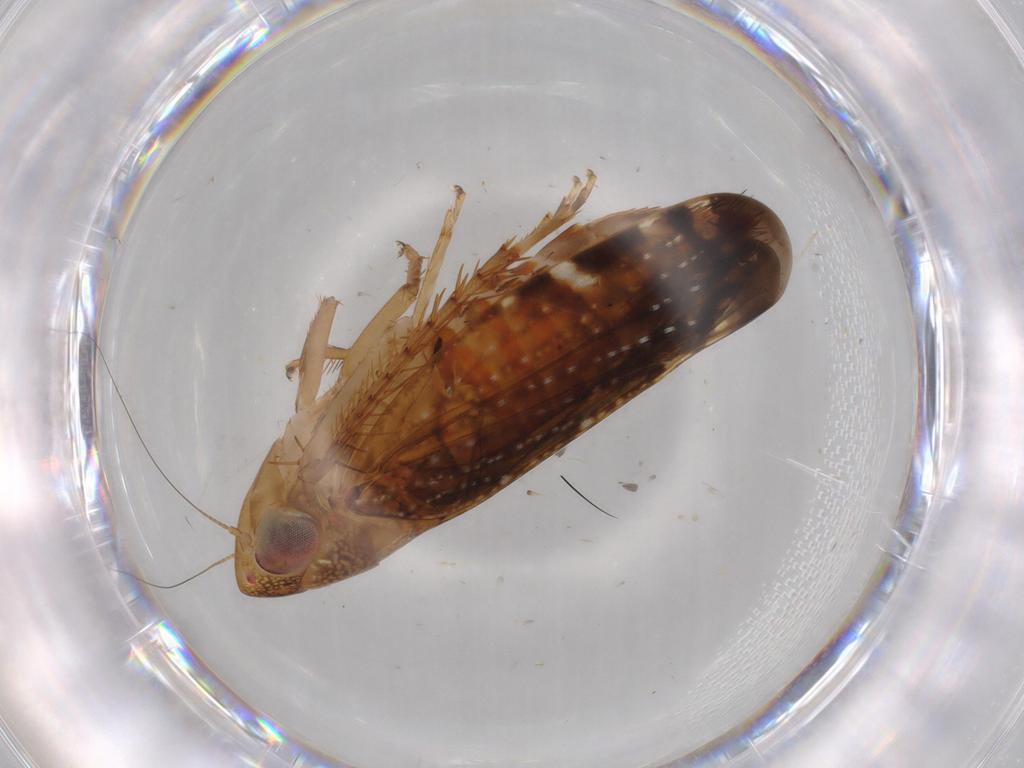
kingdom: Animalia
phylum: Arthropoda
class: Insecta
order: Hemiptera
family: Cicadellidae
